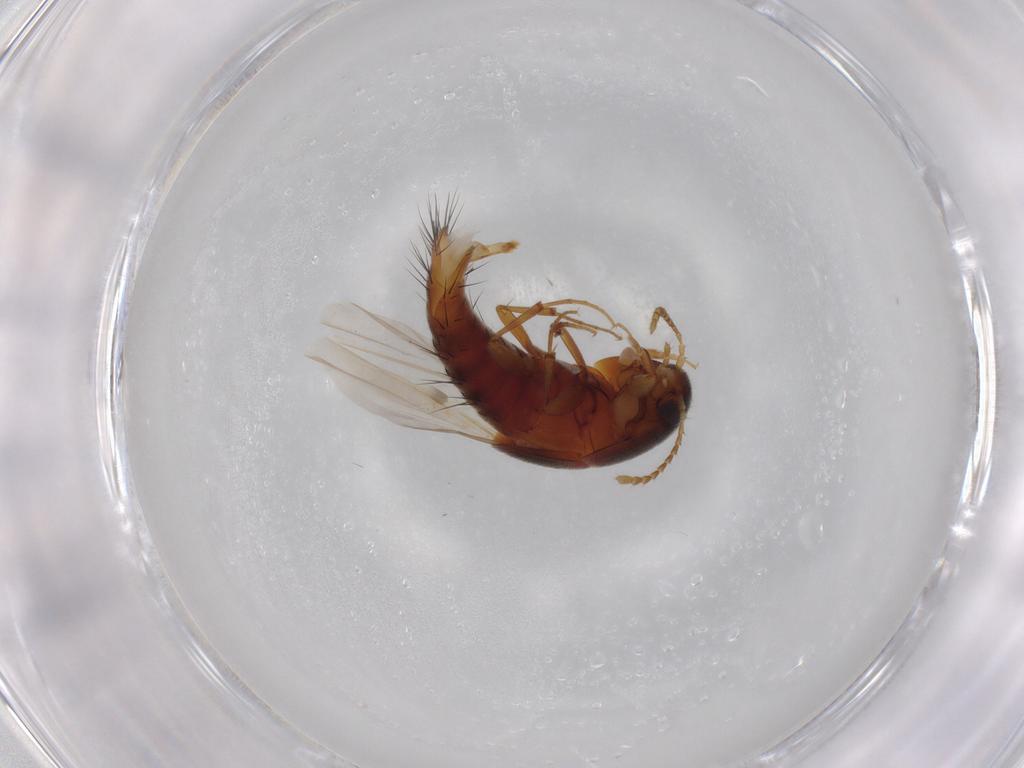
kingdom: Animalia
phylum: Arthropoda
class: Insecta
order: Coleoptera
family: Staphylinidae
